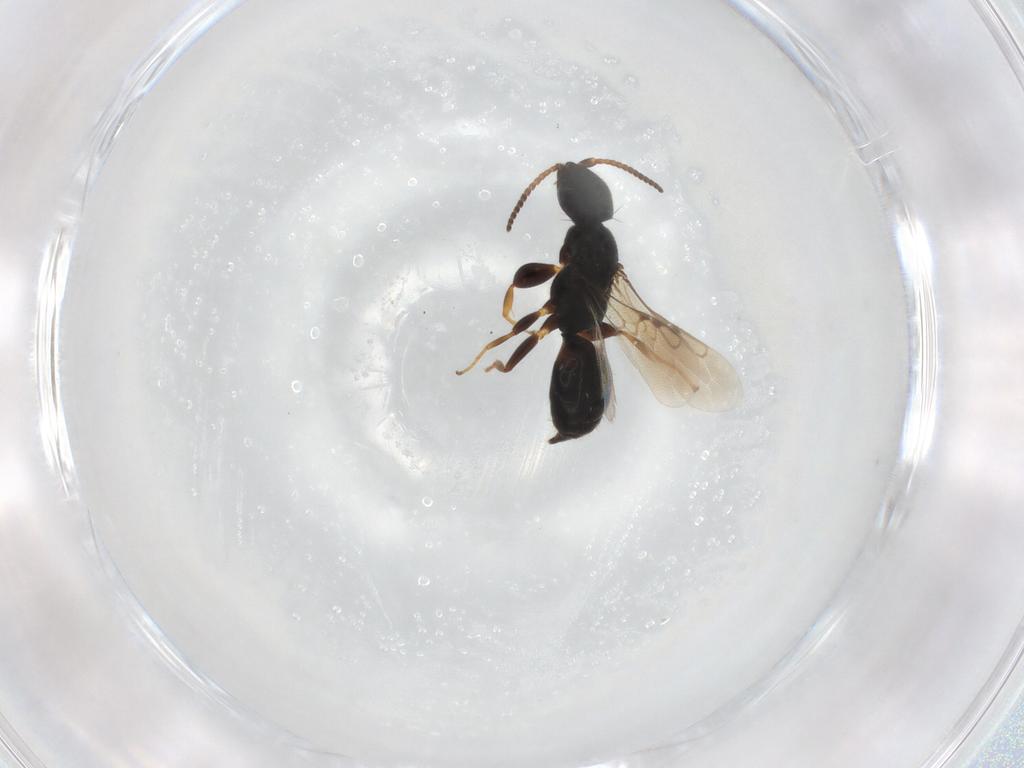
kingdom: Animalia
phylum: Arthropoda
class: Insecta
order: Hymenoptera
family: Bethylidae
